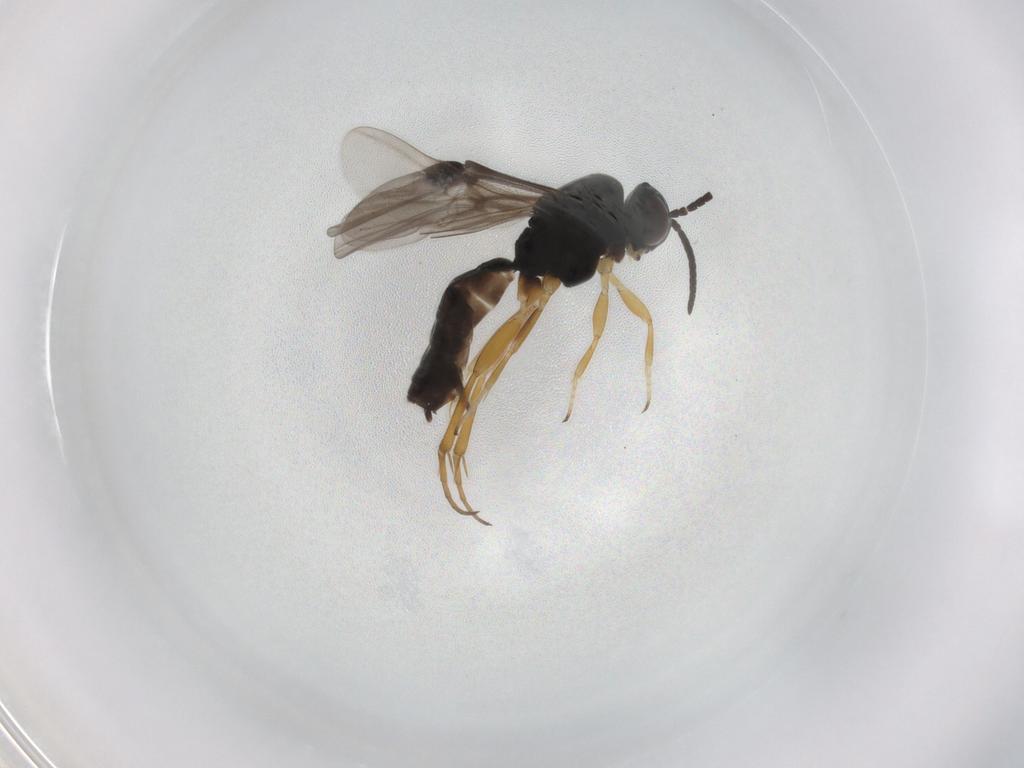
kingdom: Animalia
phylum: Arthropoda
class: Insecta
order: Hymenoptera
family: Braconidae
